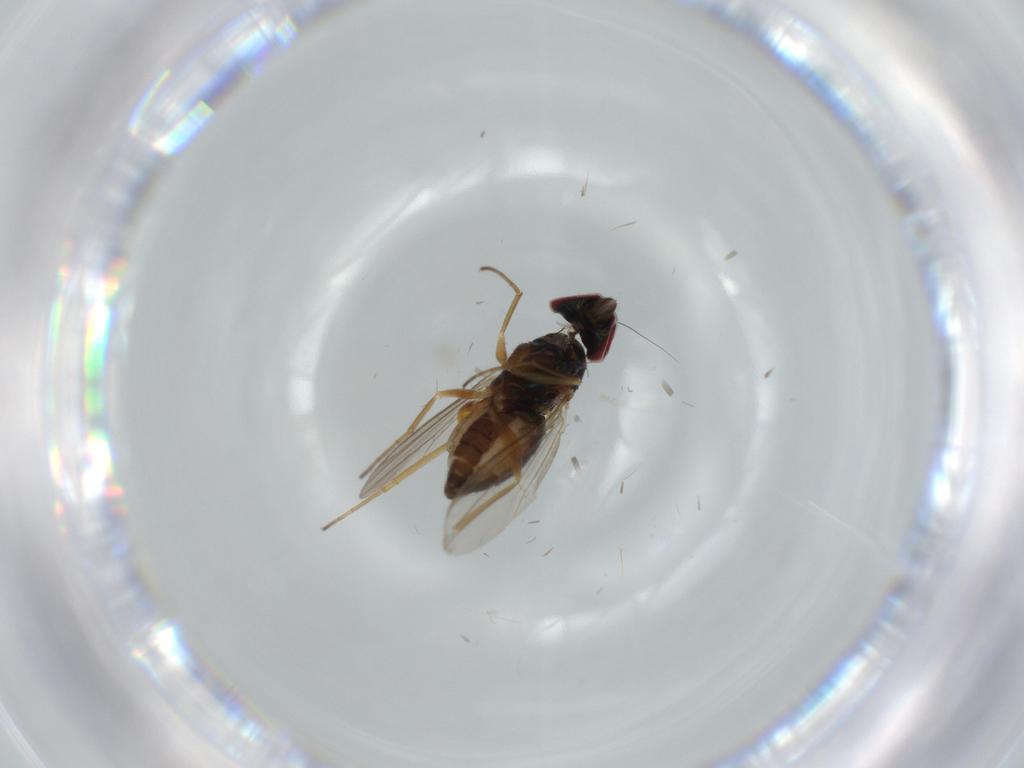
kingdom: Animalia
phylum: Arthropoda
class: Insecta
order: Diptera
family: Dolichopodidae
